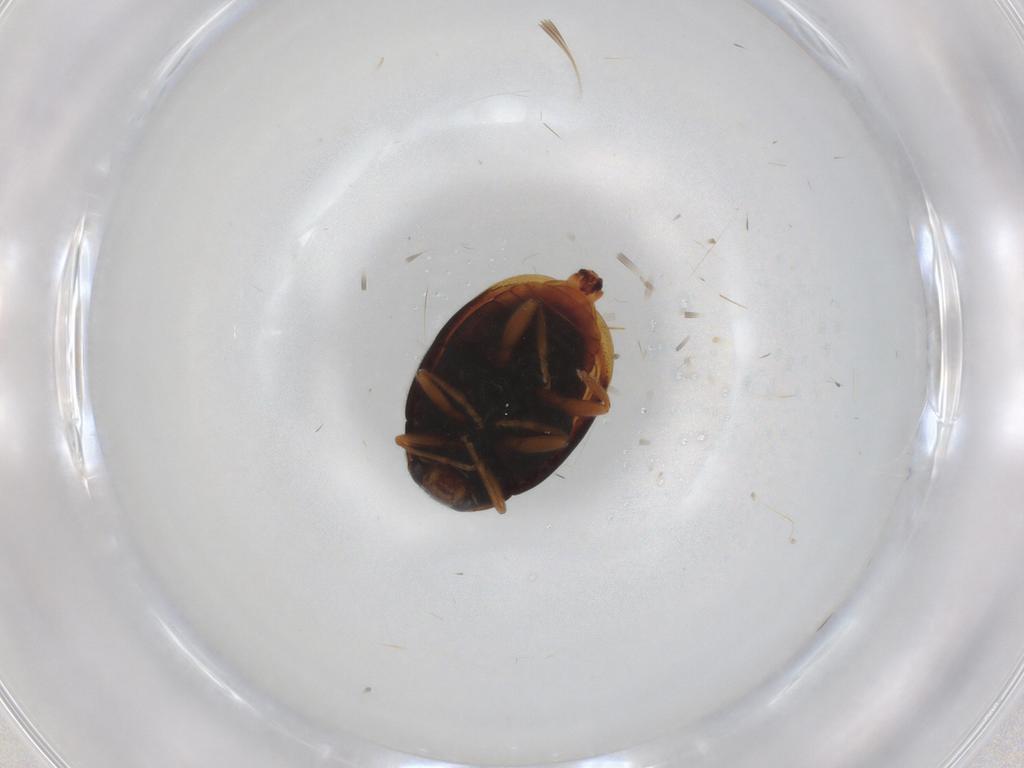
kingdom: Animalia
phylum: Arthropoda
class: Insecta
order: Coleoptera
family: Coccinellidae
